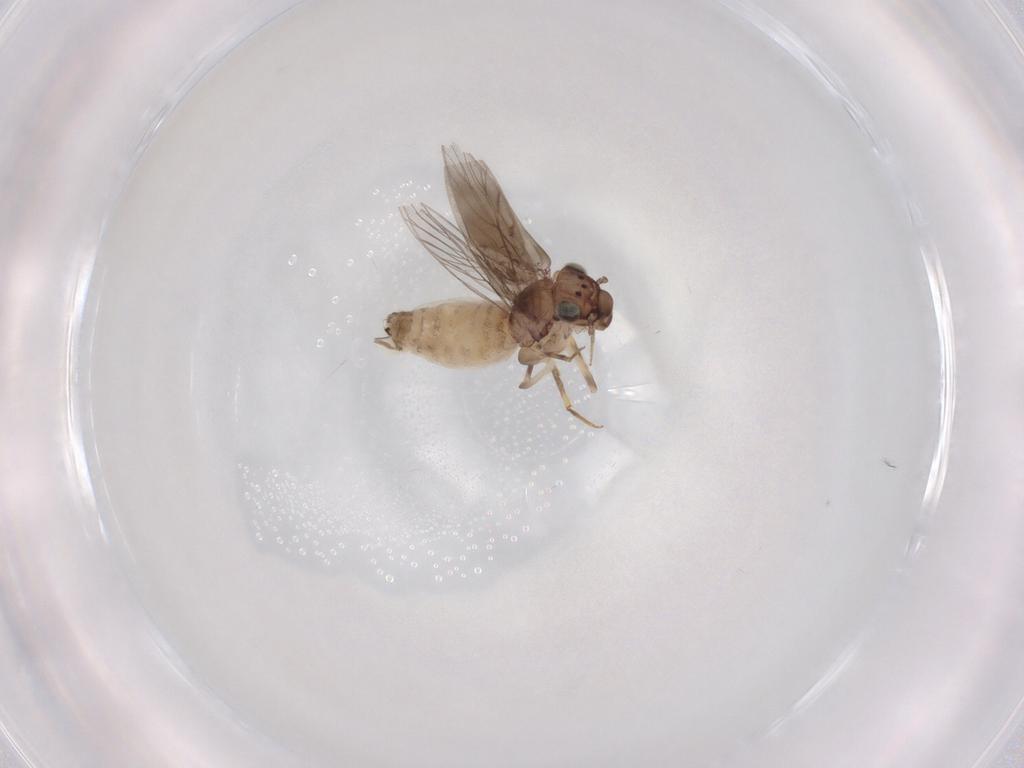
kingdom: Animalia
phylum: Arthropoda
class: Insecta
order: Psocodea
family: Lepidopsocidae
